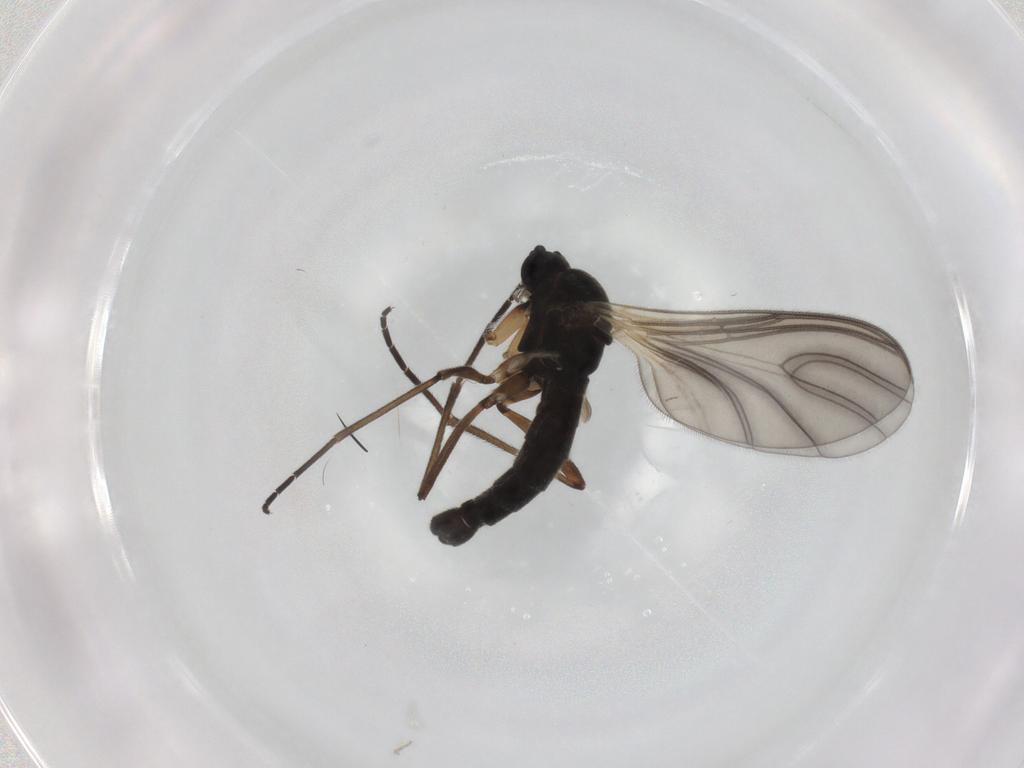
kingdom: Animalia
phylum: Arthropoda
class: Insecta
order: Diptera
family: Sciaridae
